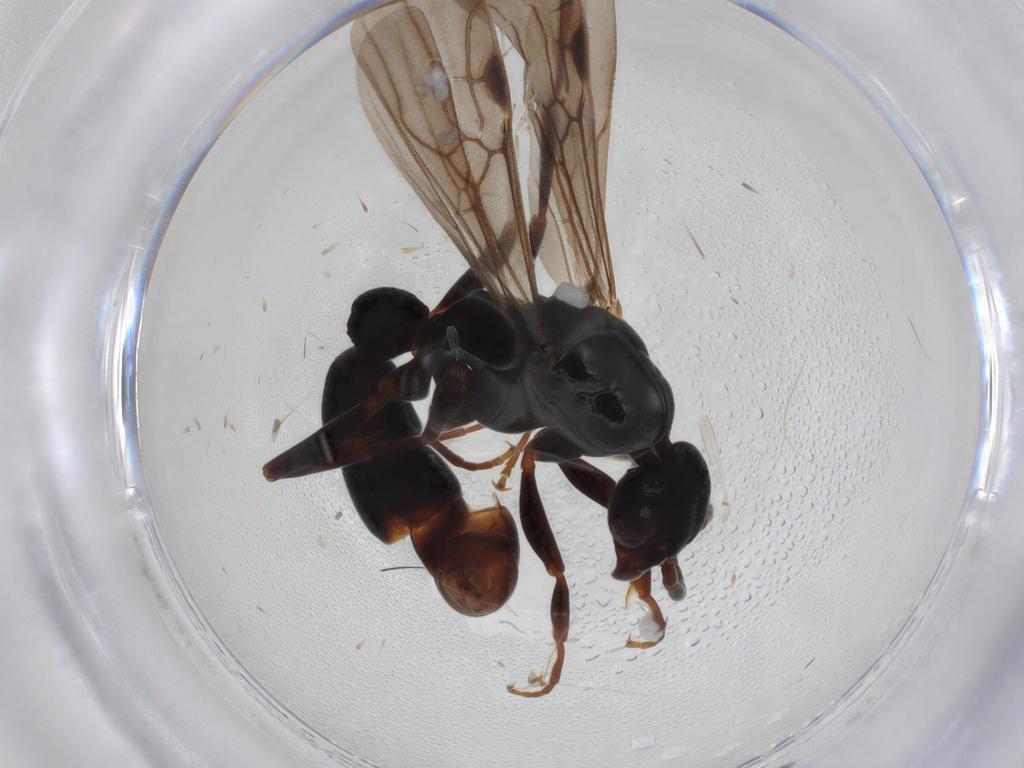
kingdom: Animalia
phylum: Arthropoda
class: Insecta
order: Hymenoptera
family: Formicidae
